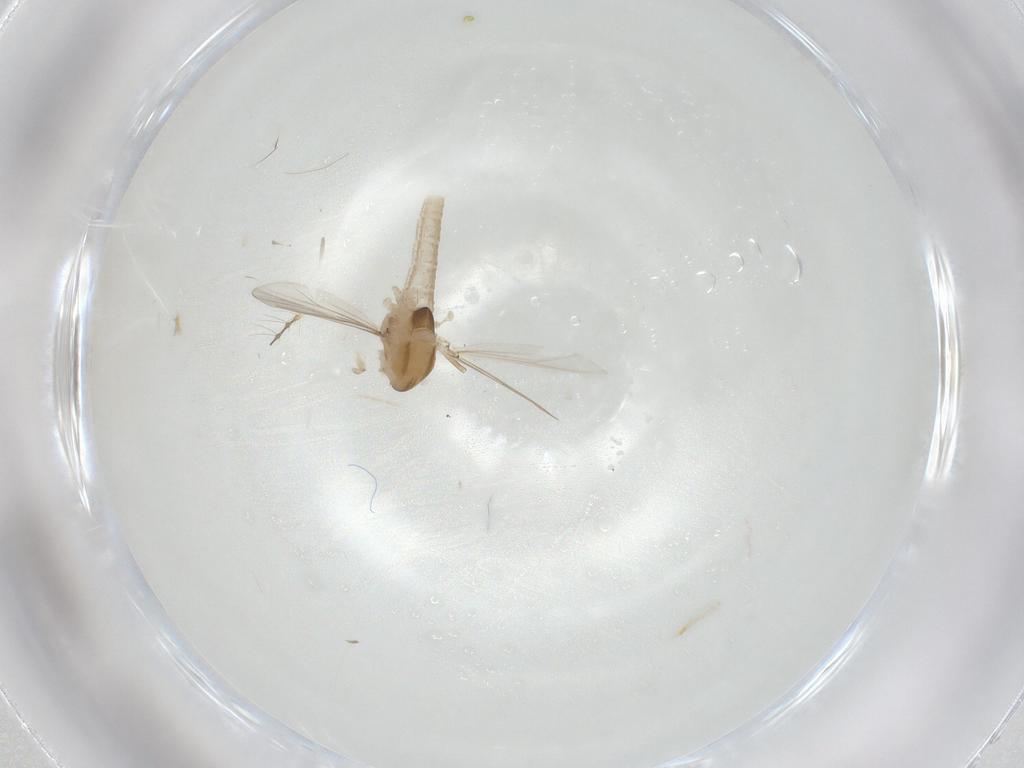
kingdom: Animalia
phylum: Arthropoda
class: Insecta
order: Diptera
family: Chironomidae
